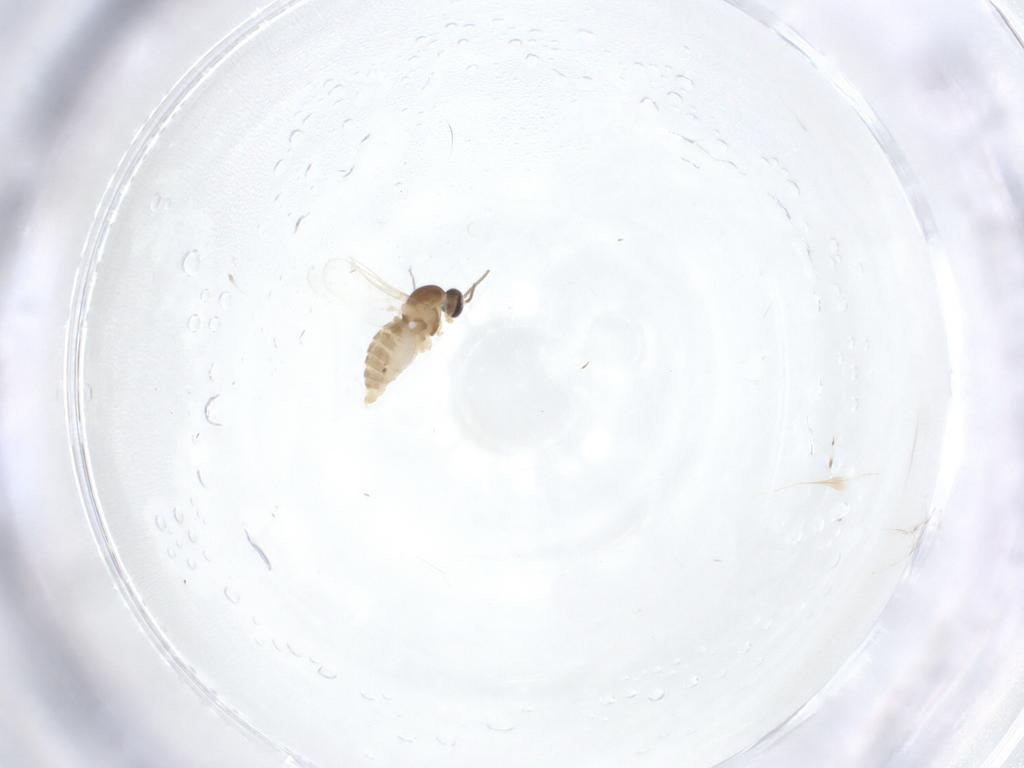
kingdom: Animalia
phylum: Arthropoda
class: Insecta
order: Diptera
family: Cecidomyiidae
